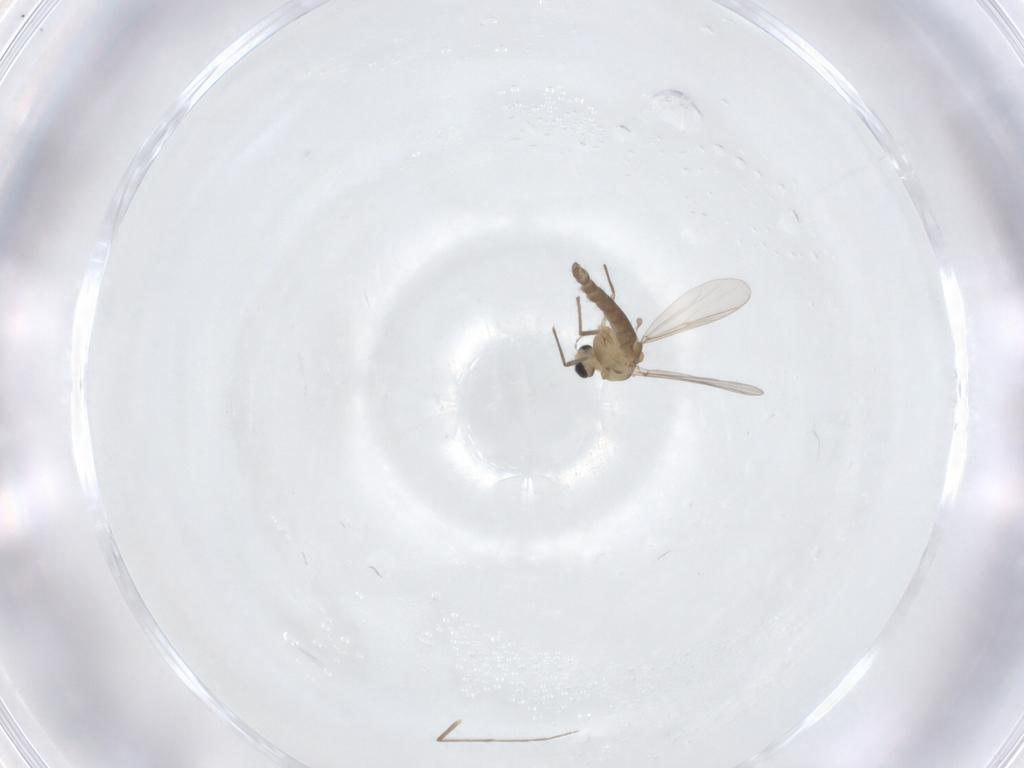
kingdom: Animalia
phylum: Arthropoda
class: Insecta
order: Diptera
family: Chironomidae
